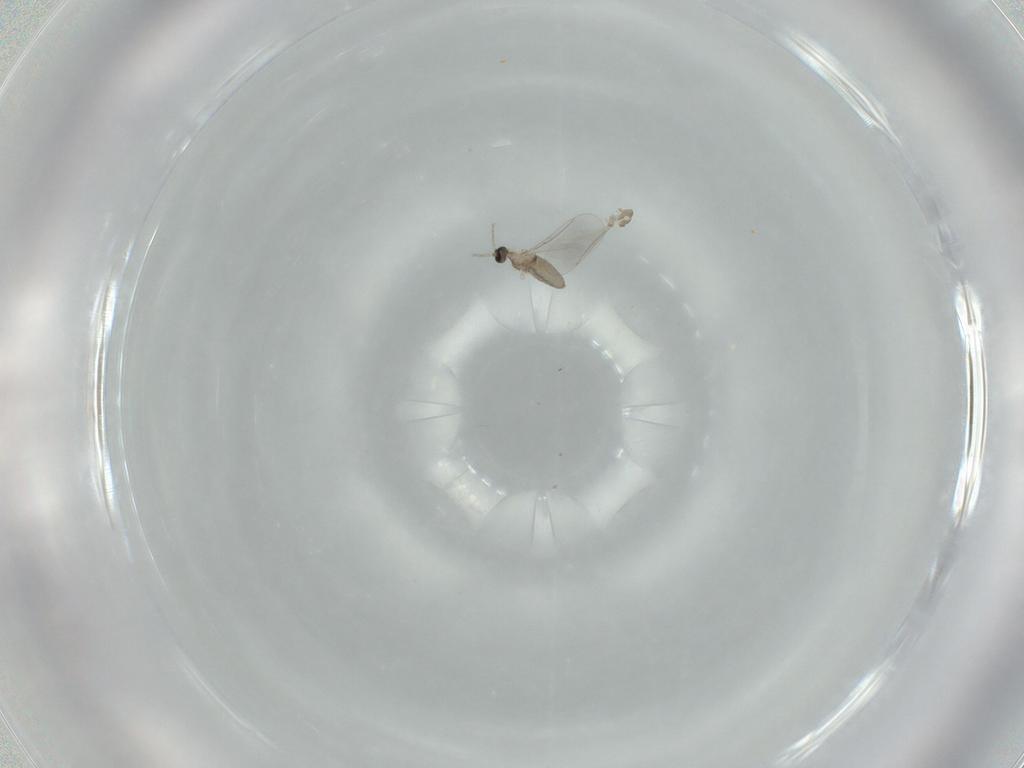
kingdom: Animalia
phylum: Arthropoda
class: Insecta
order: Diptera
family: Cecidomyiidae
